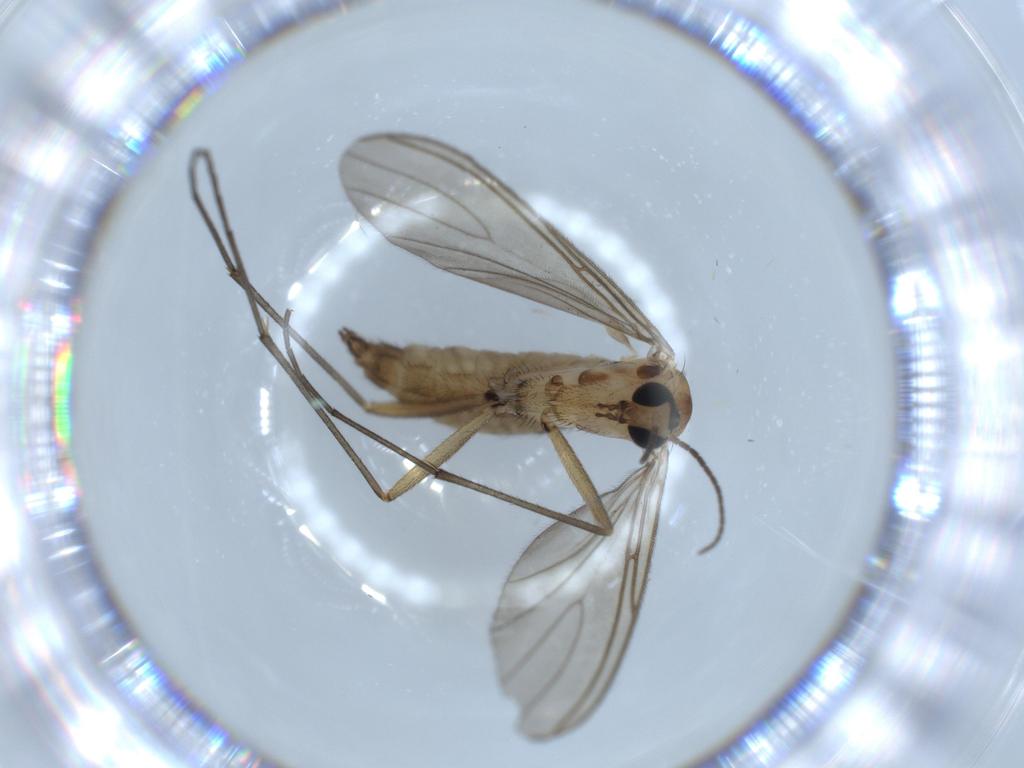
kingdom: Animalia
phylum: Arthropoda
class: Insecta
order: Diptera
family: Sciaridae
